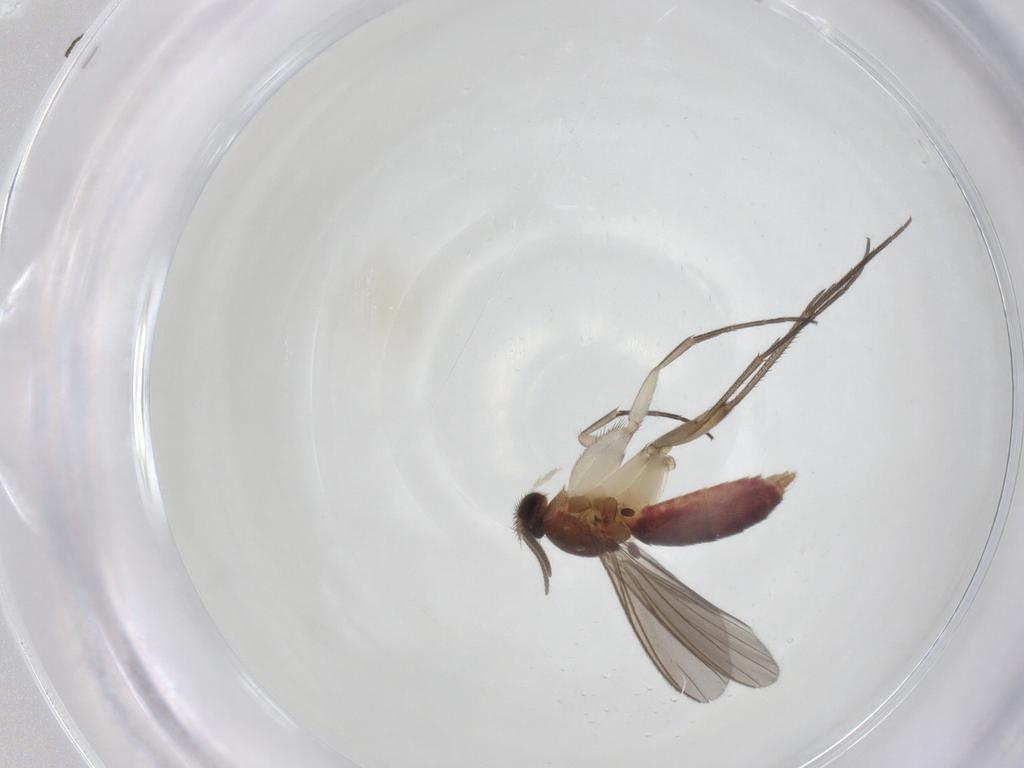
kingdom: Animalia
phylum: Arthropoda
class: Insecta
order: Diptera
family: Mycetophilidae
